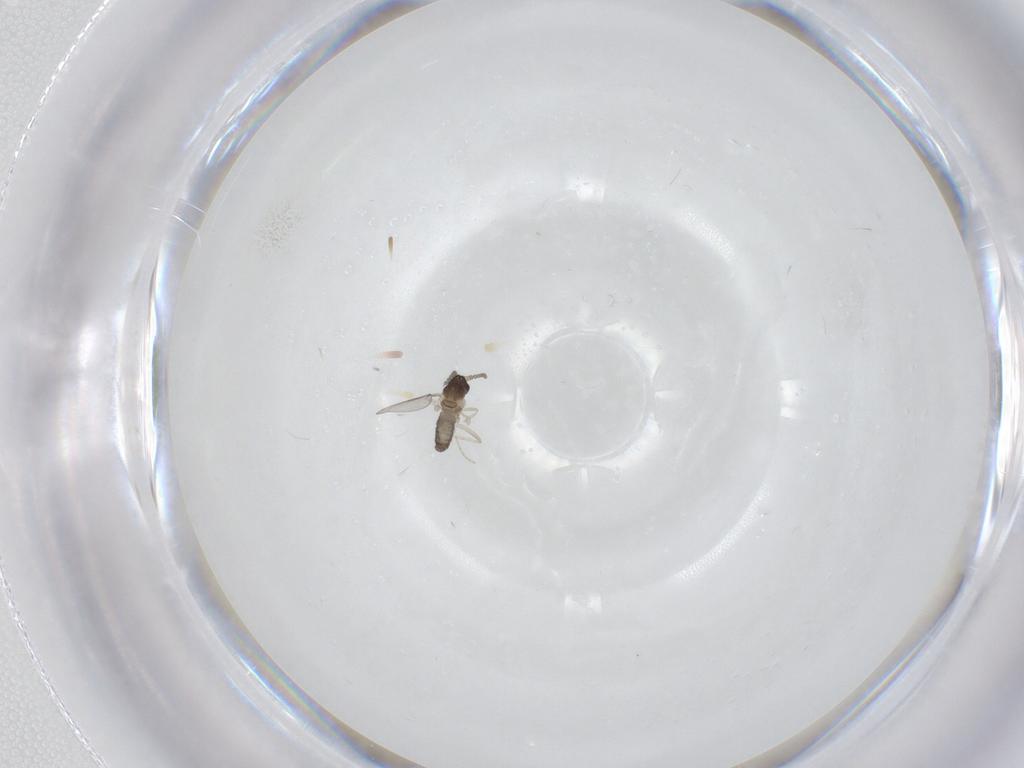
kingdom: Animalia
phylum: Arthropoda
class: Insecta
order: Diptera
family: Cecidomyiidae
